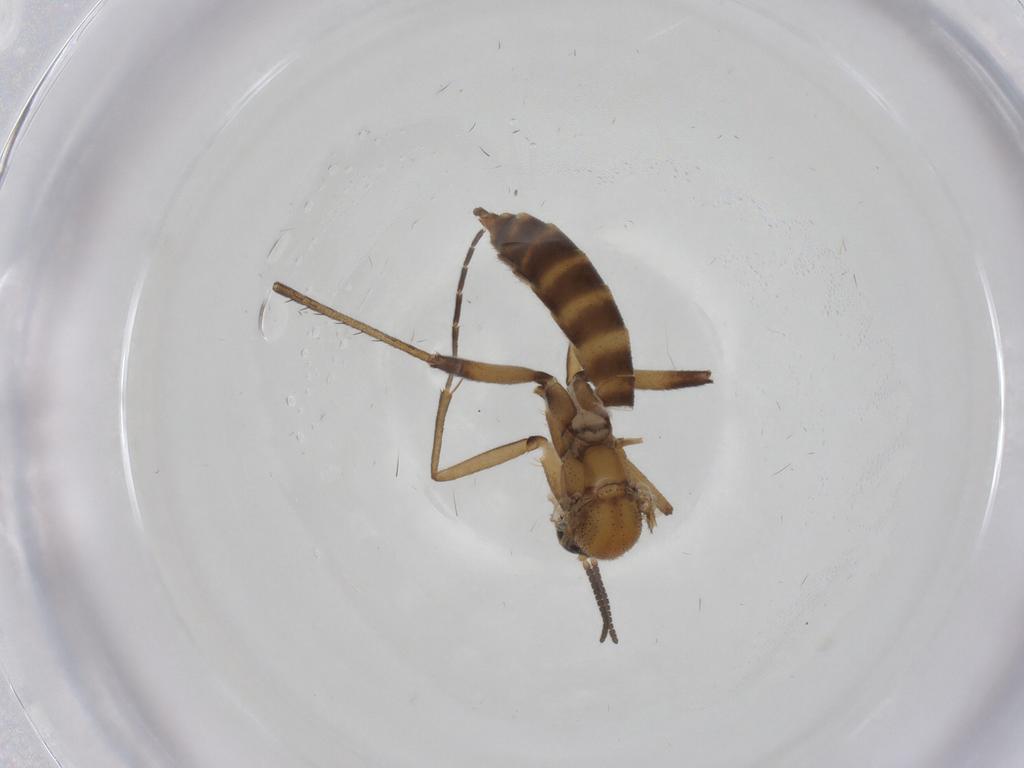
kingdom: Animalia
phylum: Arthropoda
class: Insecta
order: Diptera
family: Mycetophilidae
